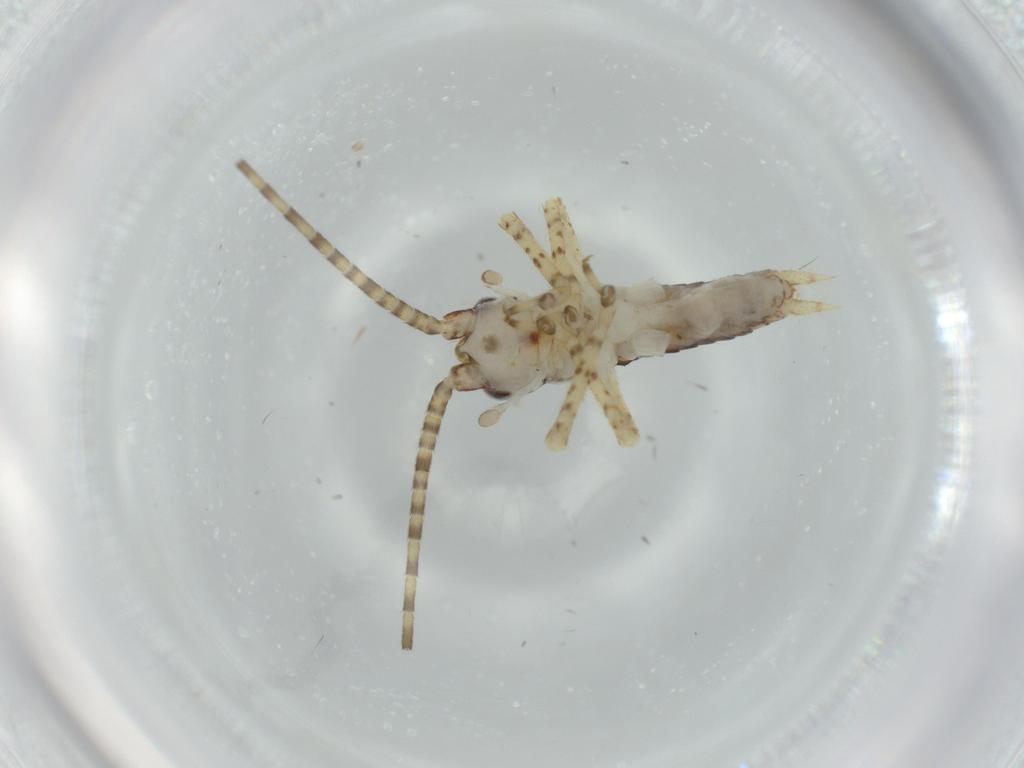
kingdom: Animalia
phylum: Arthropoda
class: Insecta
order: Orthoptera
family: Gryllidae
